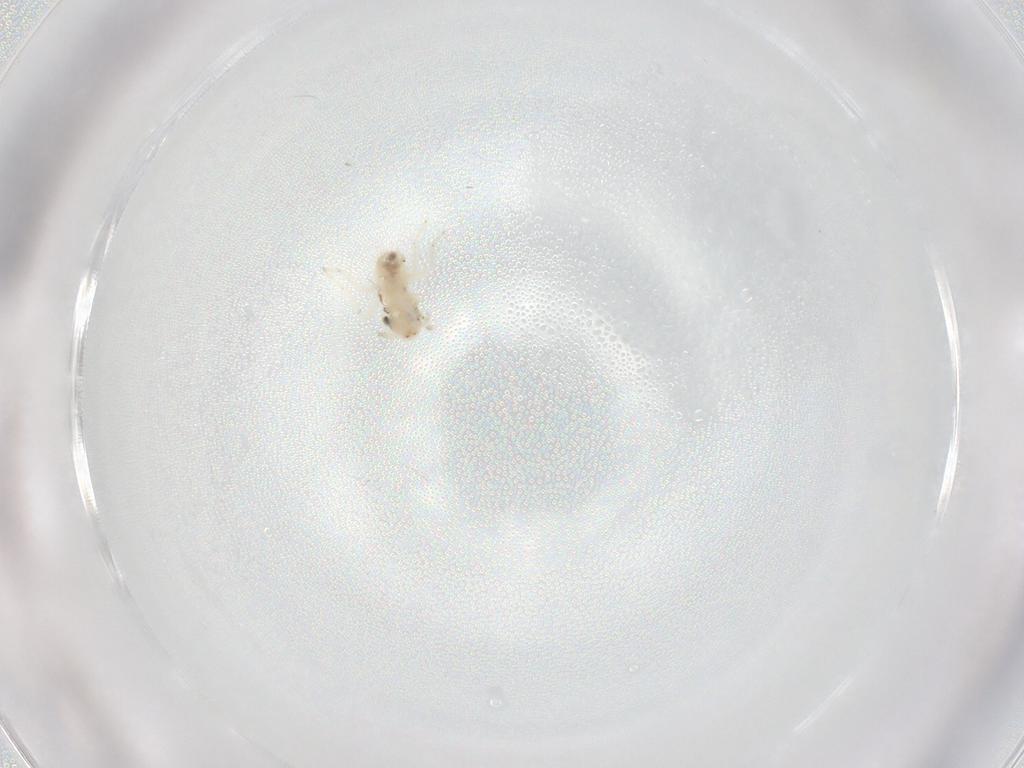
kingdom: Animalia
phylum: Arthropoda
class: Insecta
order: Psocodea
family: Lepidopsocidae
